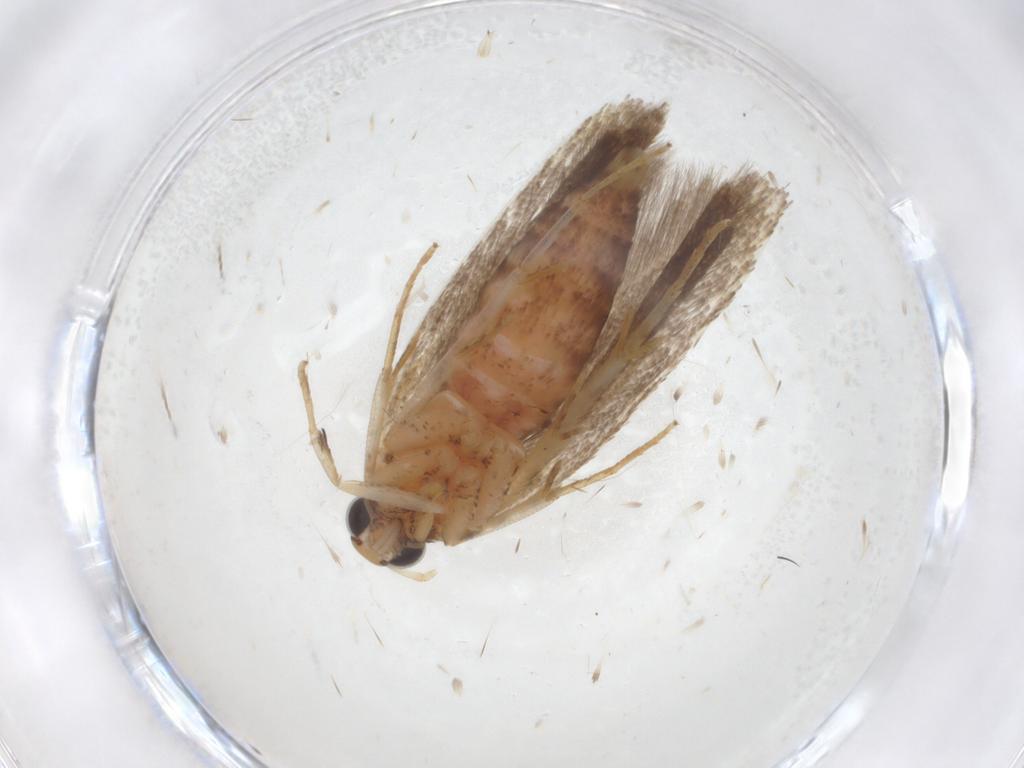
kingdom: Animalia
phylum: Arthropoda
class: Insecta
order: Lepidoptera
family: Gelechiidae
